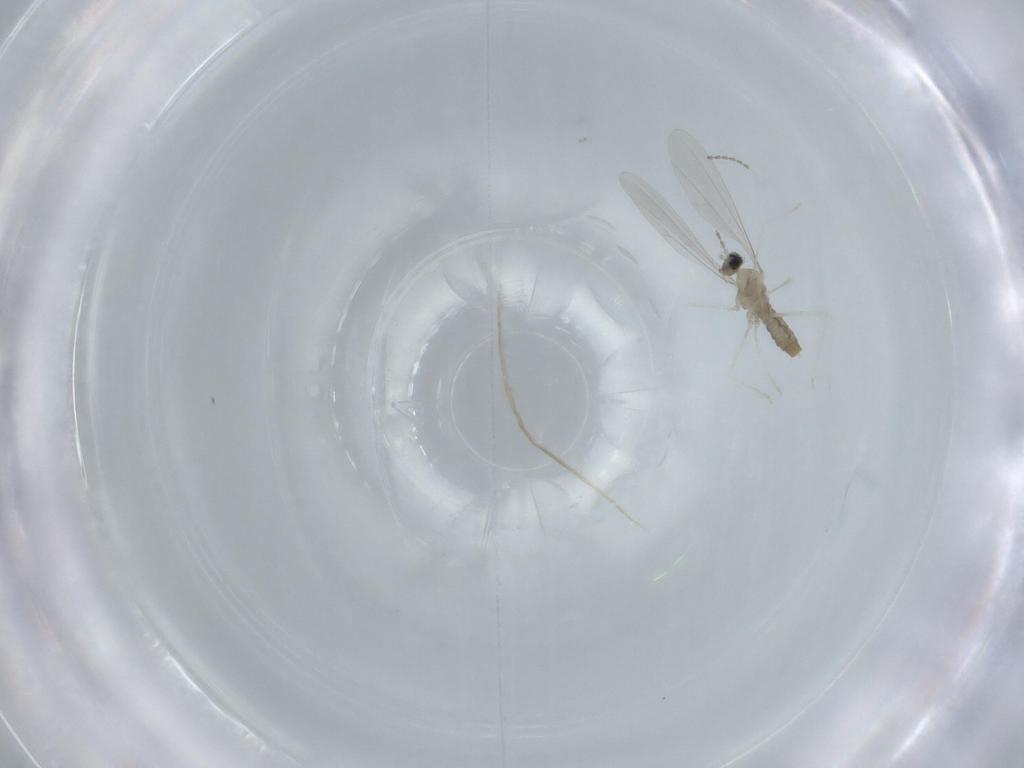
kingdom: Animalia
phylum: Arthropoda
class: Insecta
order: Diptera
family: Cecidomyiidae
